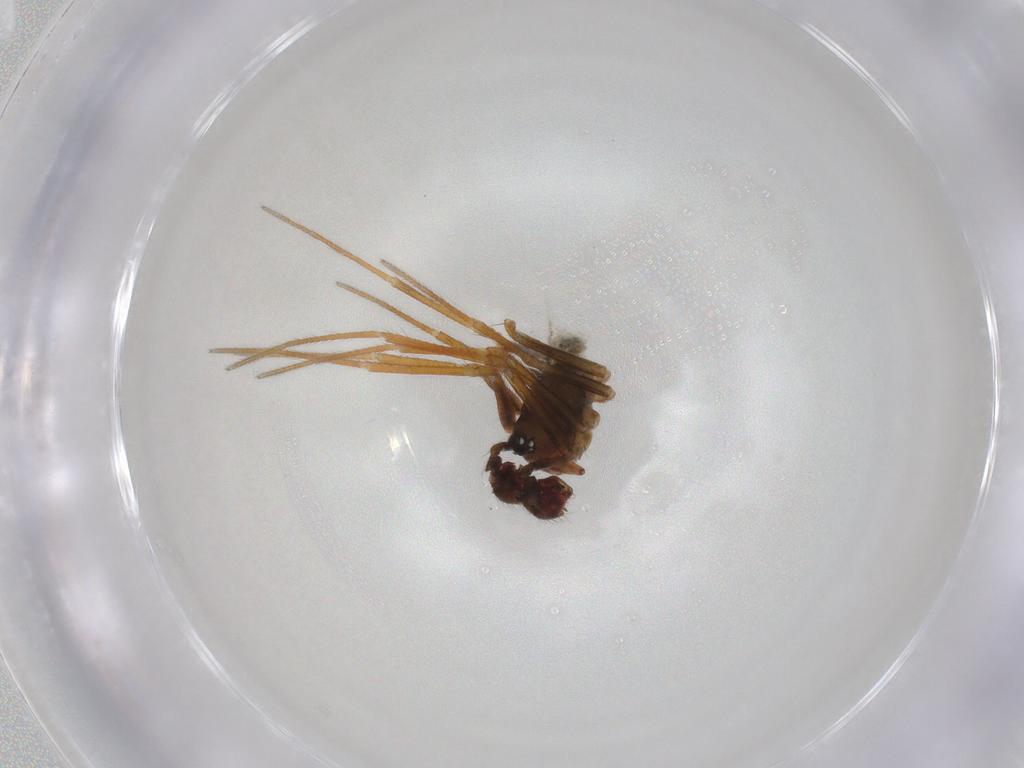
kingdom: Animalia
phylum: Arthropoda
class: Arachnida
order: Araneae
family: Linyphiidae
